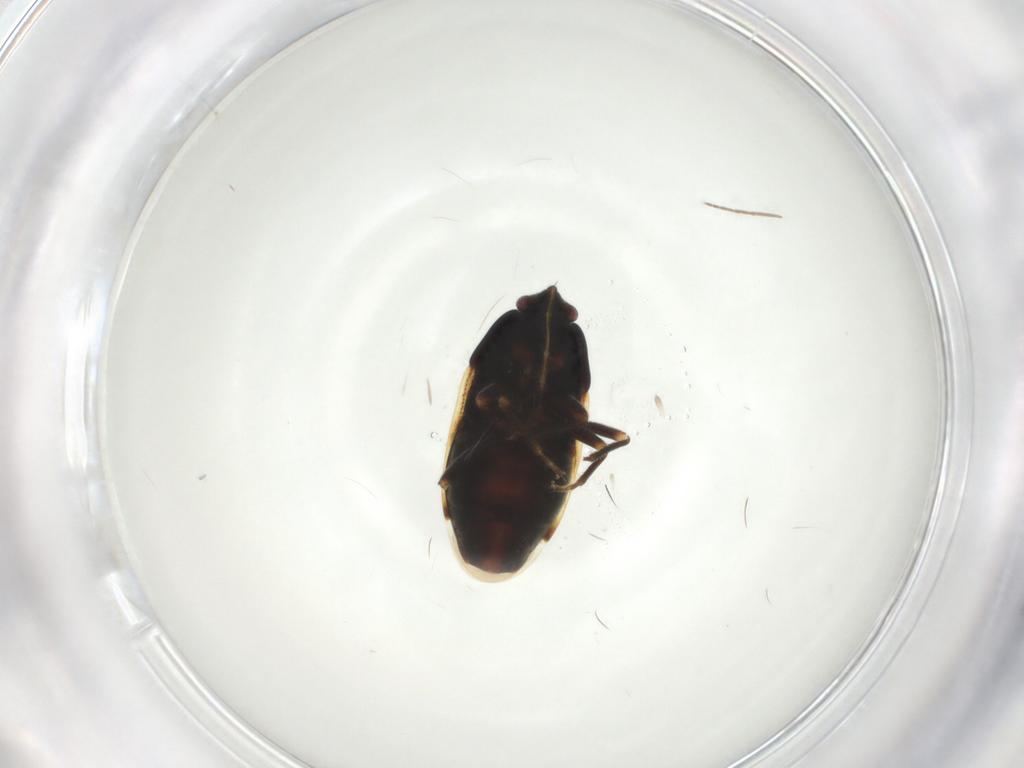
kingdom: Animalia
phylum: Arthropoda
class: Insecta
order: Hemiptera
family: Rhyparochromidae
